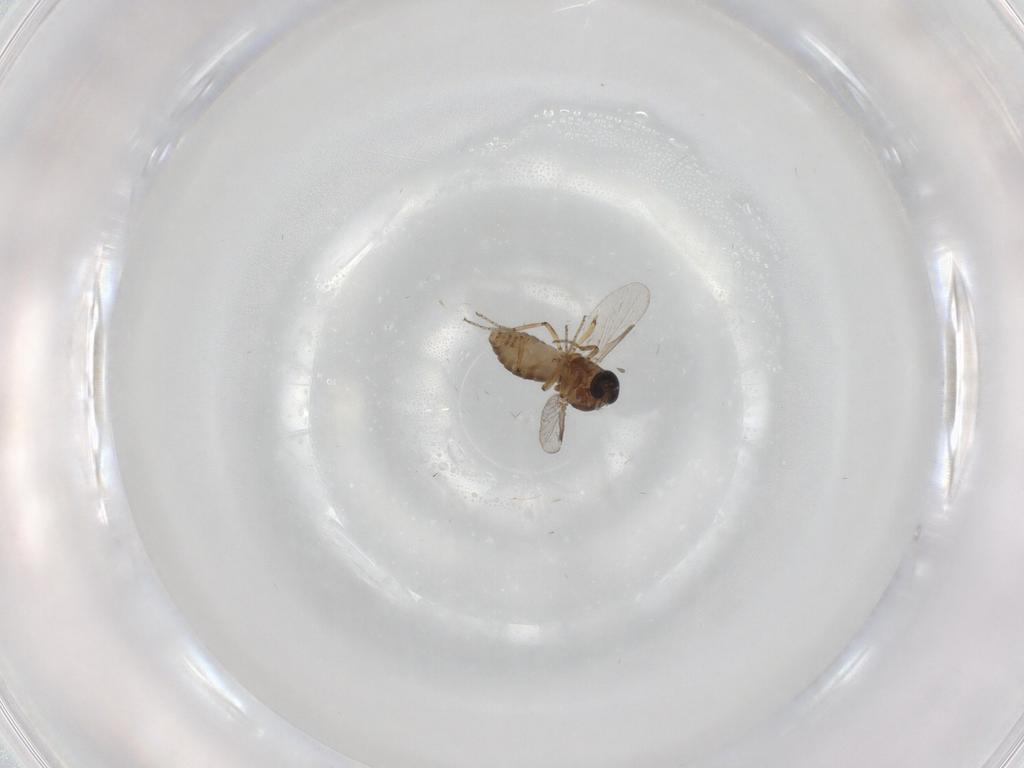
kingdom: Animalia
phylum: Arthropoda
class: Insecta
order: Diptera
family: Ceratopogonidae
